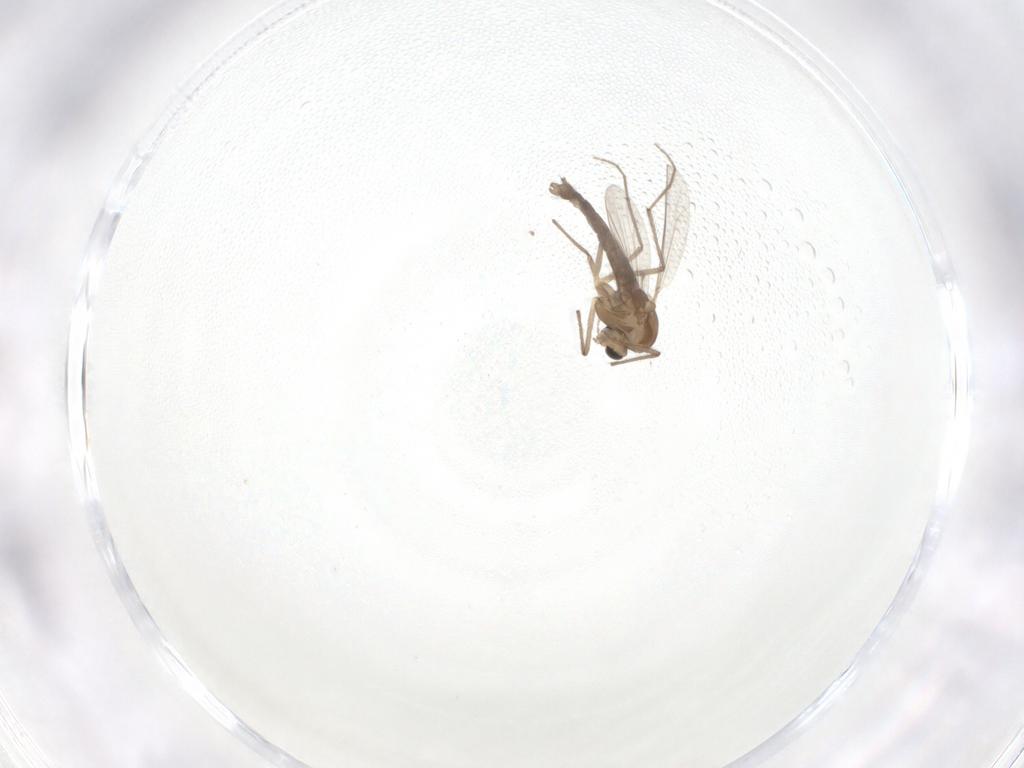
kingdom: Animalia
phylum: Arthropoda
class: Insecta
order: Diptera
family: Chironomidae
